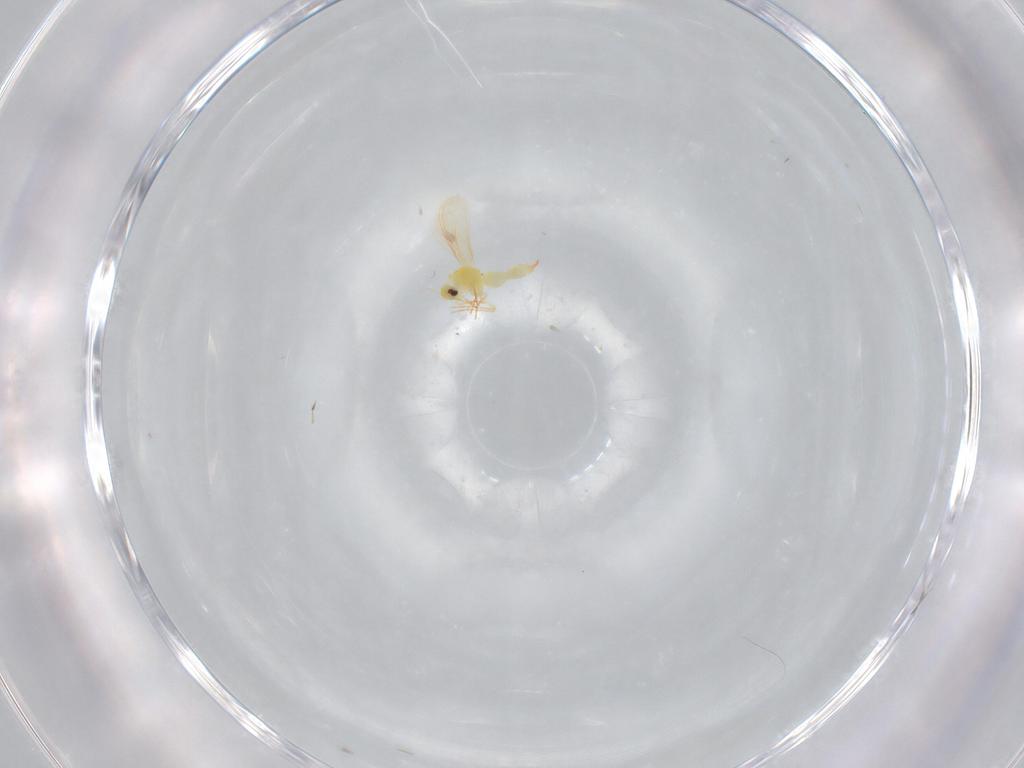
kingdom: Animalia
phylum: Arthropoda
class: Insecta
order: Hemiptera
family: Cicadellidae
